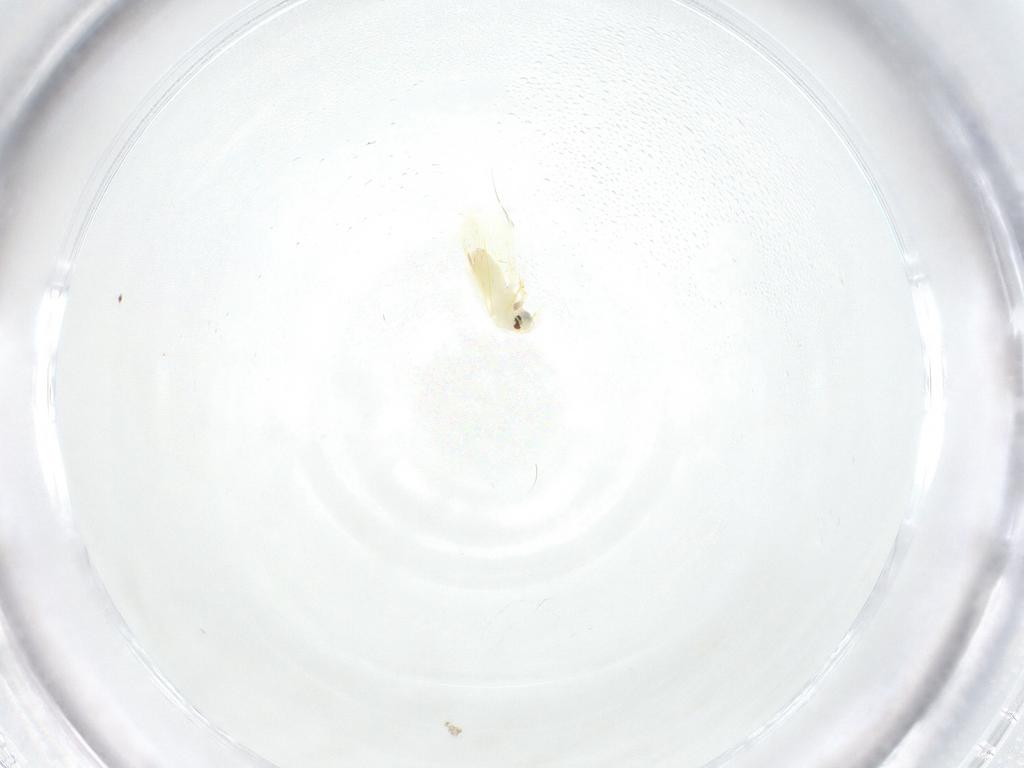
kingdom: Animalia
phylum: Arthropoda
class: Insecta
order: Hemiptera
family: Aleyrodidae
